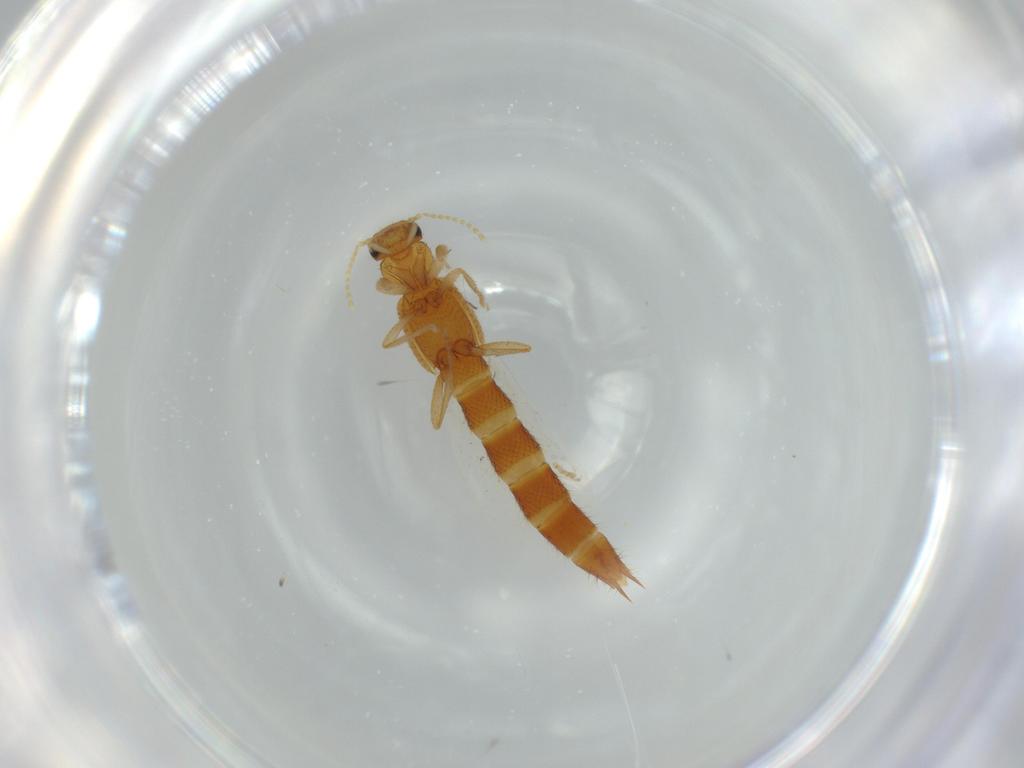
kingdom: Animalia
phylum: Arthropoda
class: Insecta
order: Coleoptera
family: Staphylinidae
